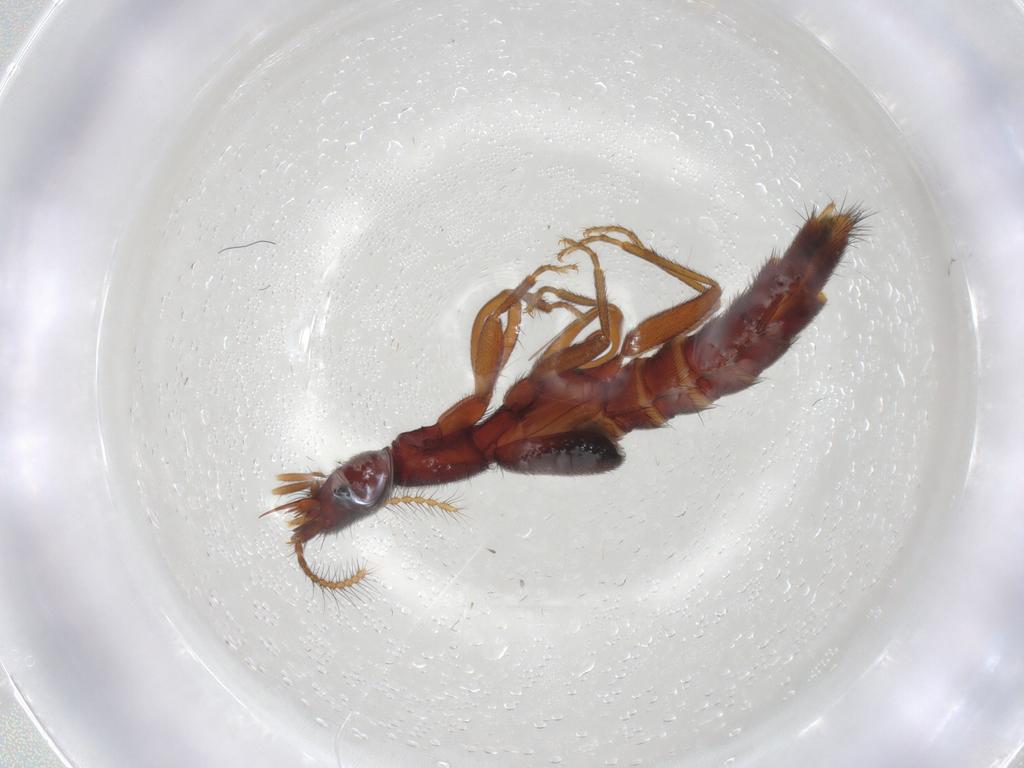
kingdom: Animalia
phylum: Arthropoda
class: Insecta
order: Coleoptera
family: Staphylinidae
